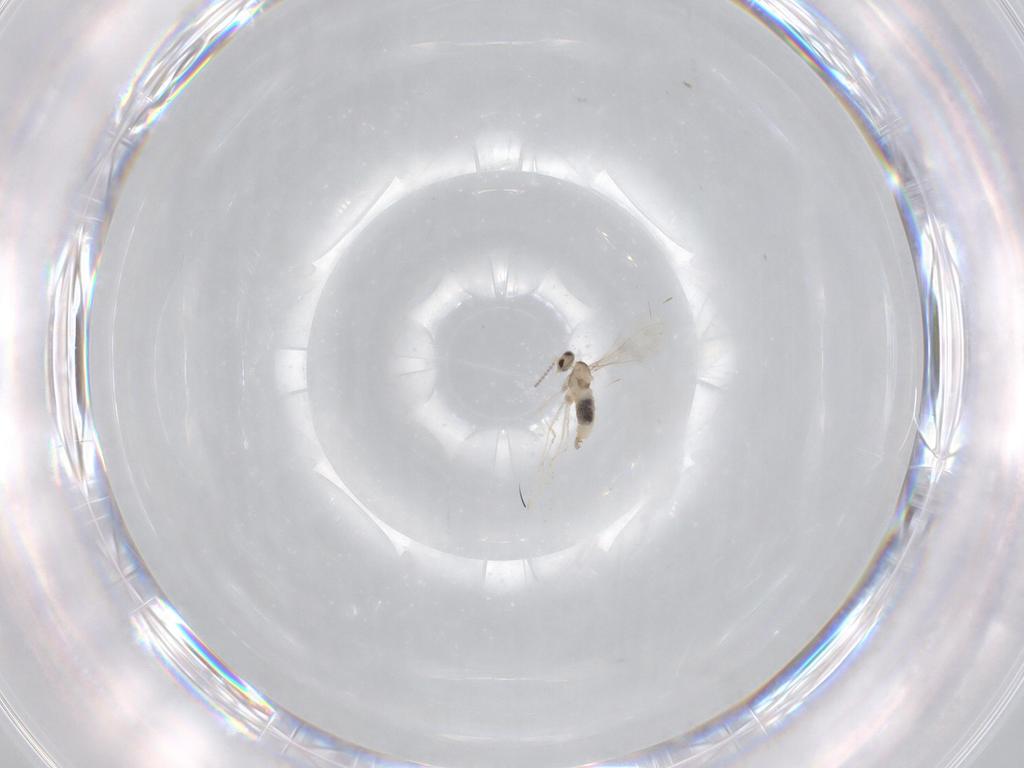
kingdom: Animalia
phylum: Arthropoda
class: Insecta
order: Diptera
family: Cecidomyiidae
